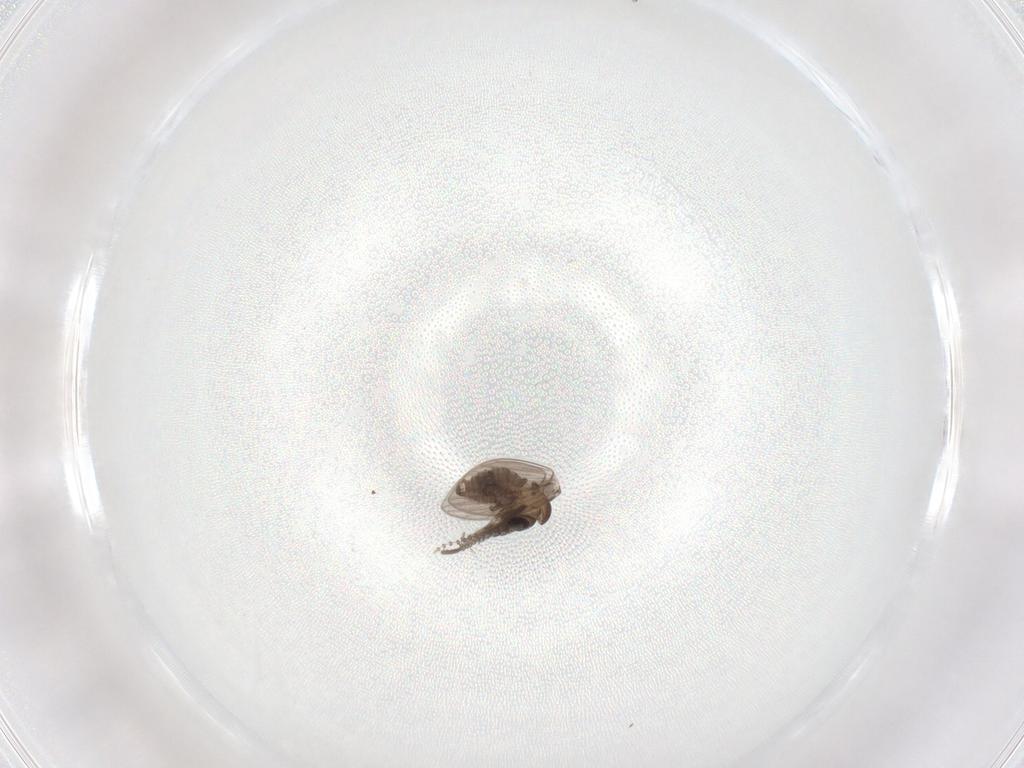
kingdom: Animalia
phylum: Arthropoda
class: Insecta
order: Diptera
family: Psychodidae
